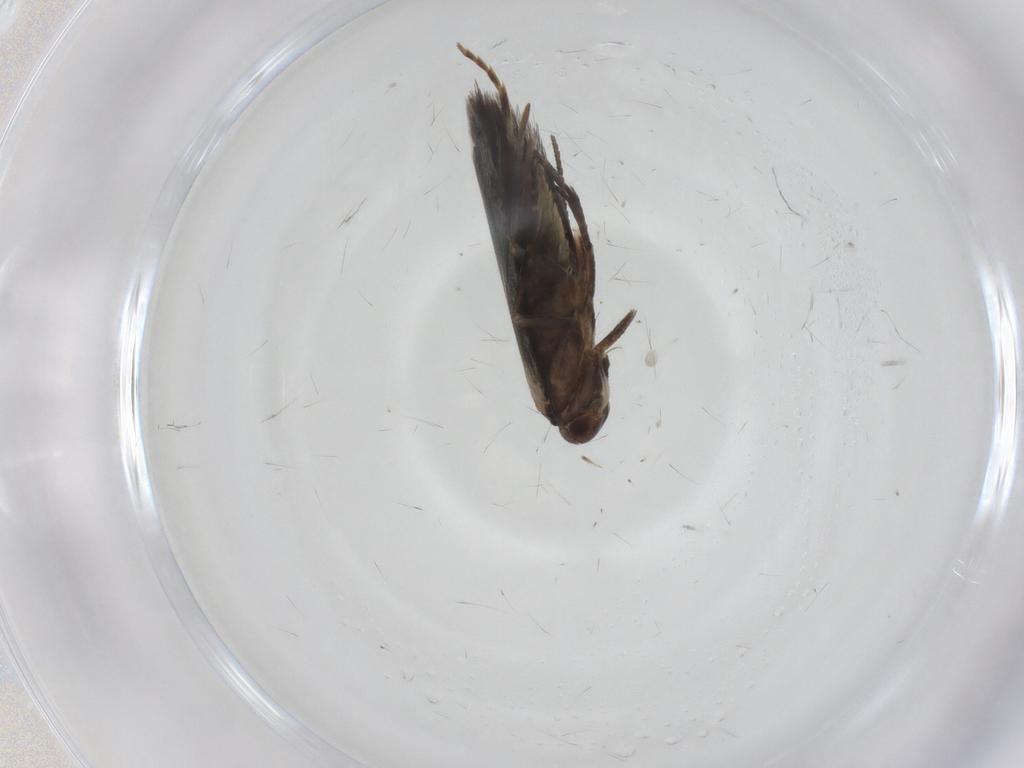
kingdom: Animalia
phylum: Arthropoda
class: Insecta
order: Lepidoptera
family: Elachistidae
